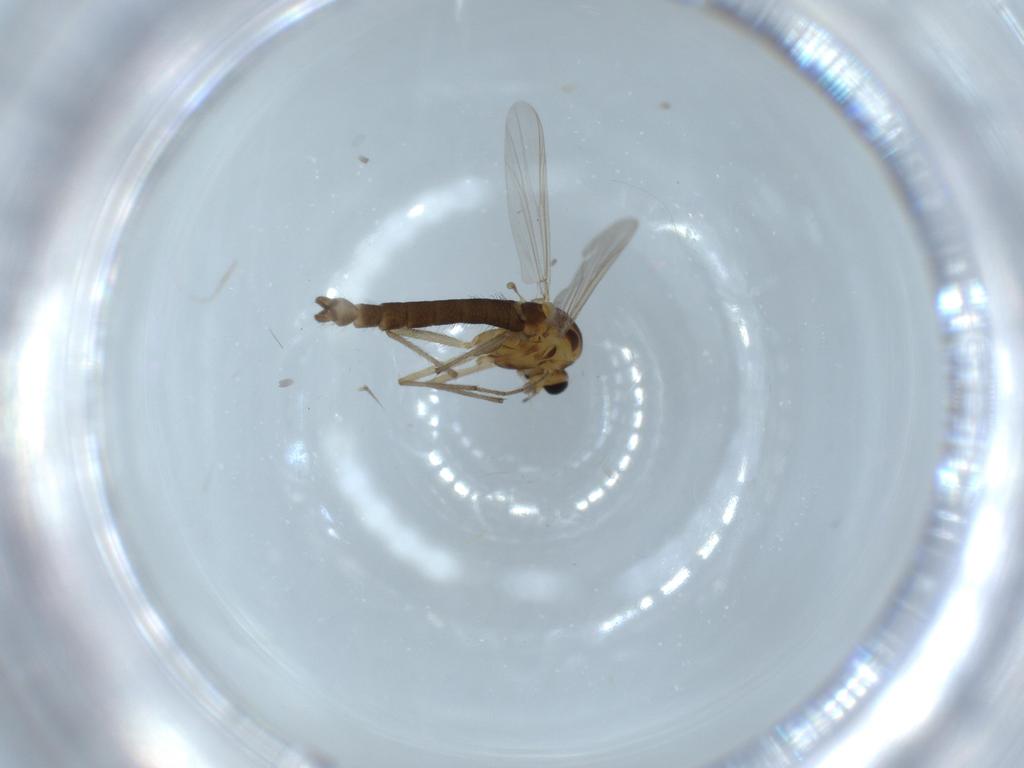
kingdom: Animalia
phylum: Arthropoda
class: Insecta
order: Diptera
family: Chironomidae
